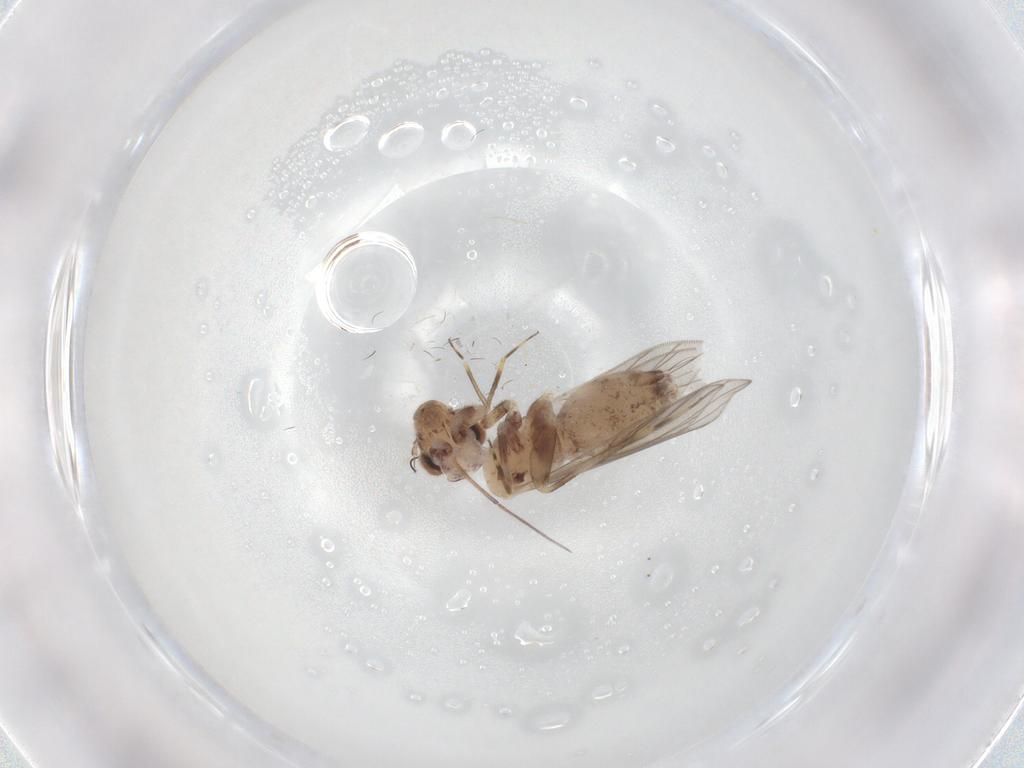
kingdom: Animalia
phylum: Arthropoda
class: Insecta
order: Psocodea
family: Lepidopsocidae
